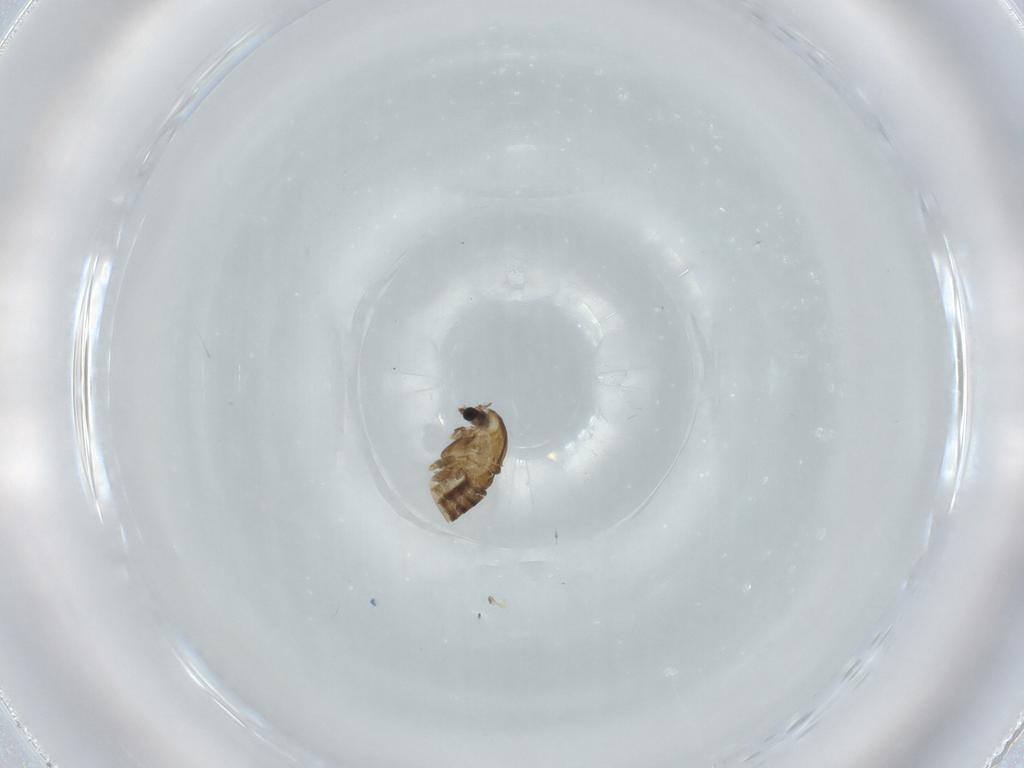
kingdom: Animalia
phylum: Arthropoda
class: Insecta
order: Diptera
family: Chironomidae
